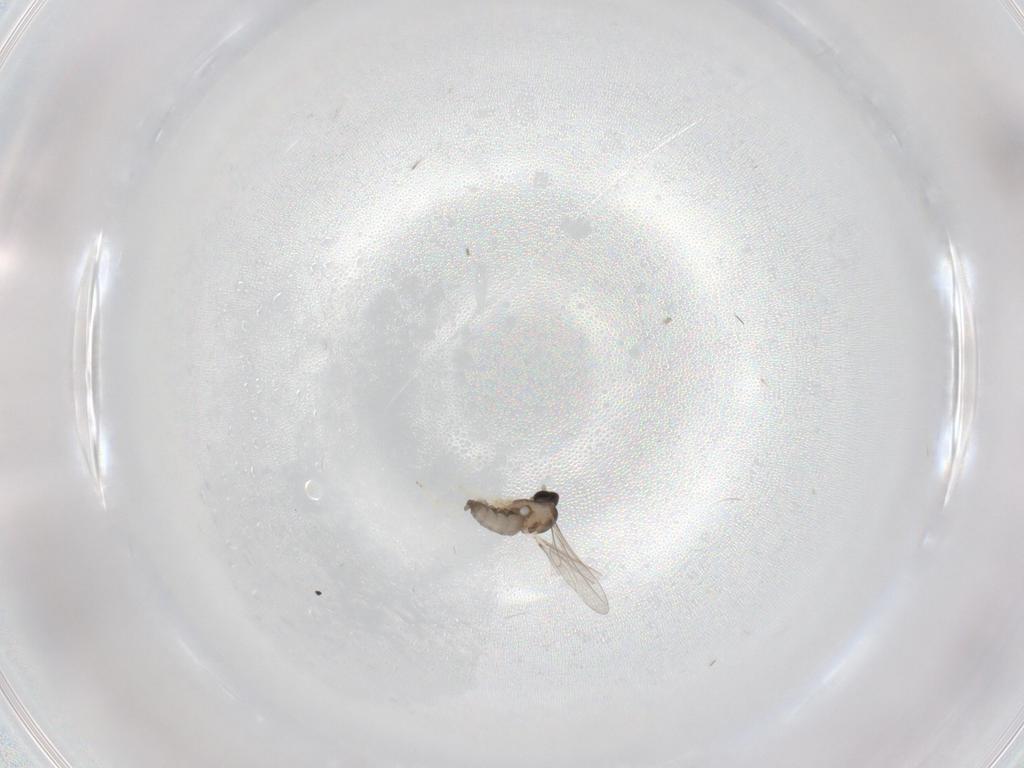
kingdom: Animalia
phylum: Arthropoda
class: Insecta
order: Diptera
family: Cecidomyiidae
